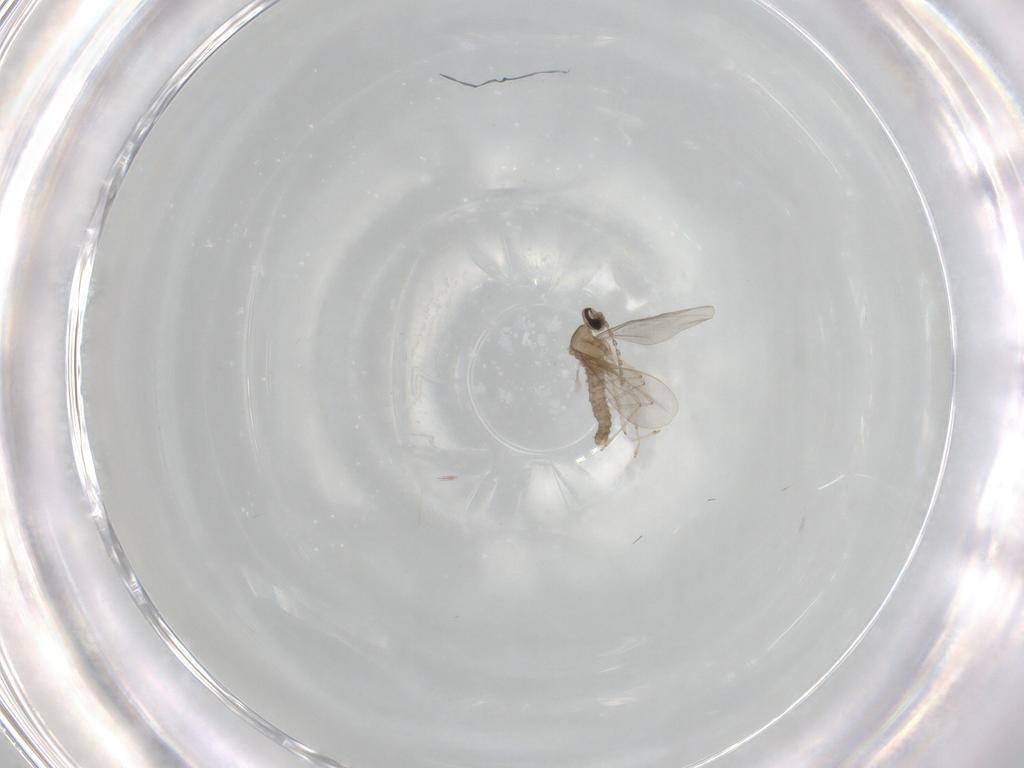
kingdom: Animalia
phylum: Arthropoda
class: Insecta
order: Diptera
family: Cecidomyiidae
